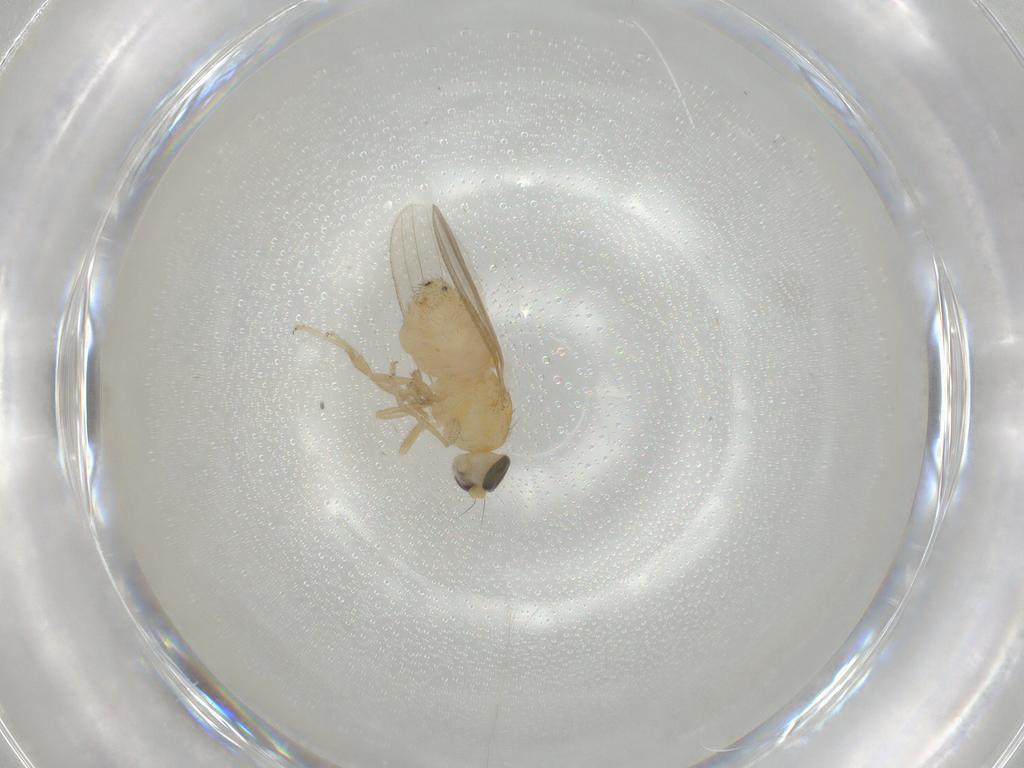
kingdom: Animalia
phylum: Arthropoda
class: Insecta
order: Diptera
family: Chyromyidae
